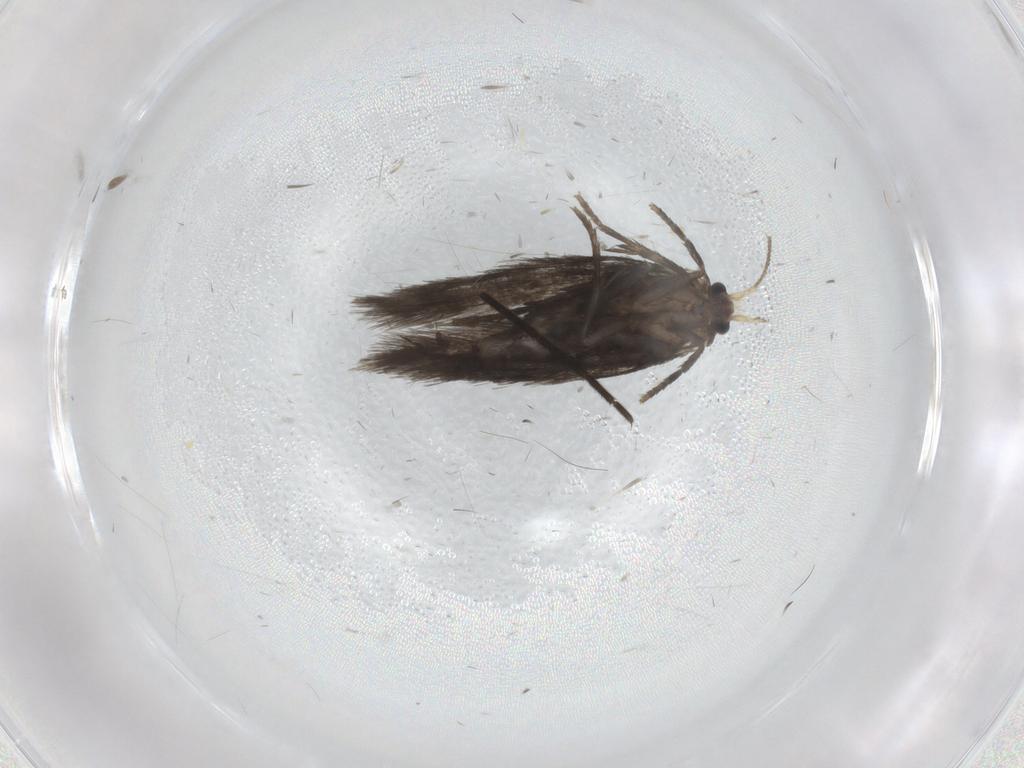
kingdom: Animalia
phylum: Arthropoda
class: Insecta
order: Lepidoptera
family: Nepticulidae
